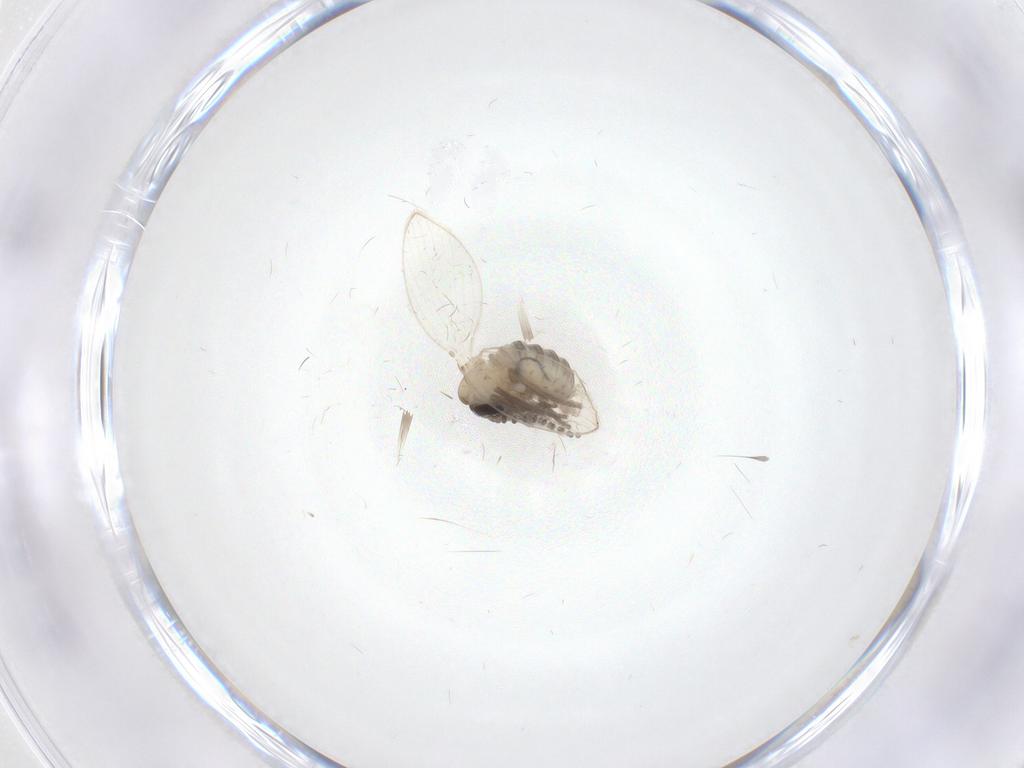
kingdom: Animalia
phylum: Arthropoda
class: Insecta
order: Diptera
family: Psychodidae
